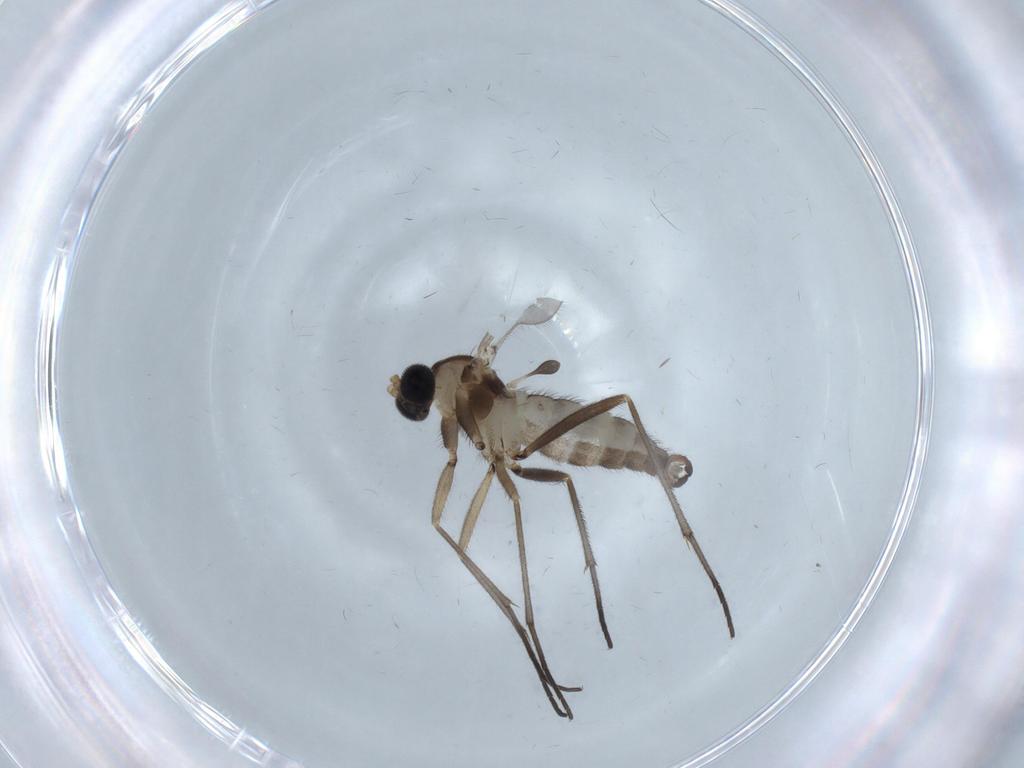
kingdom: Animalia
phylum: Arthropoda
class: Insecta
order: Diptera
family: Sciaridae
